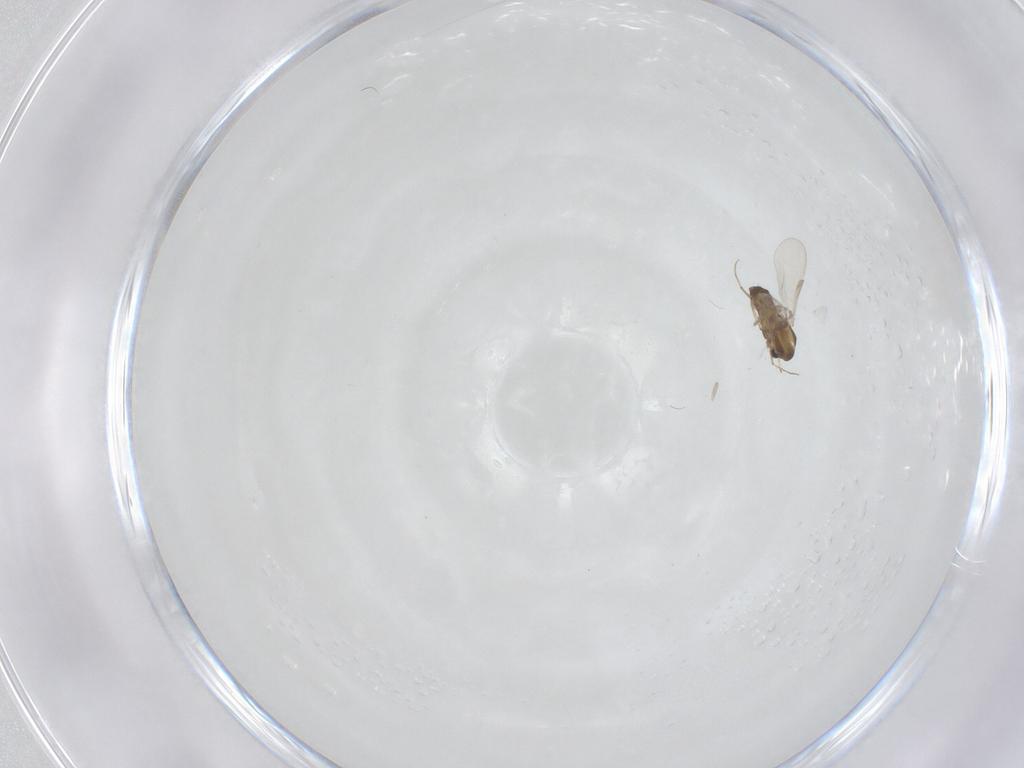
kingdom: Animalia
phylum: Arthropoda
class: Insecta
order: Diptera
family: Chironomidae
